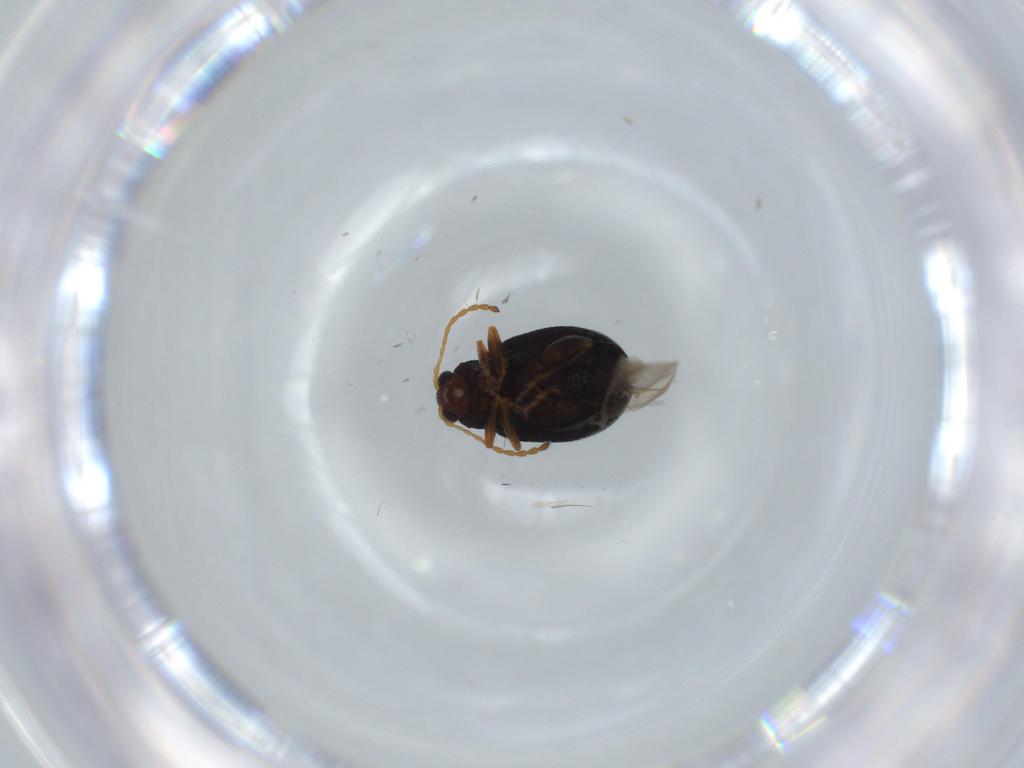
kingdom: Animalia
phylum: Arthropoda
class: Insecta
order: Coleoptera
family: Chrysomelidae
